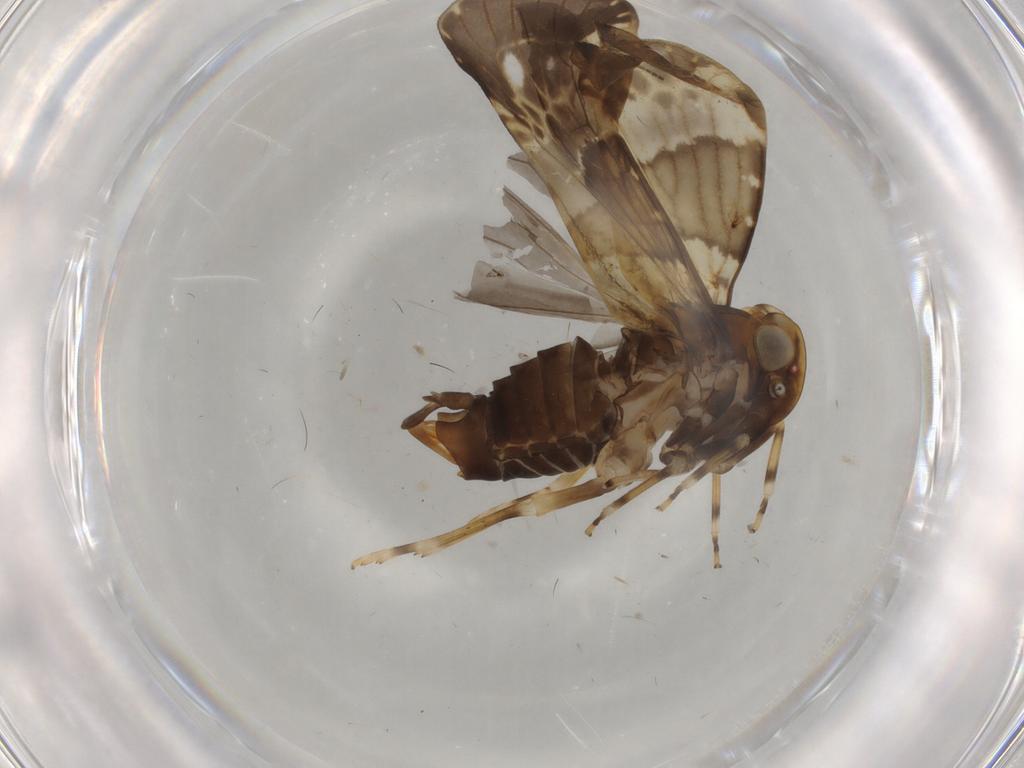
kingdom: Animalia
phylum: Arthropoda
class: Insecta
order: Hemiptera
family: Cixiidae
